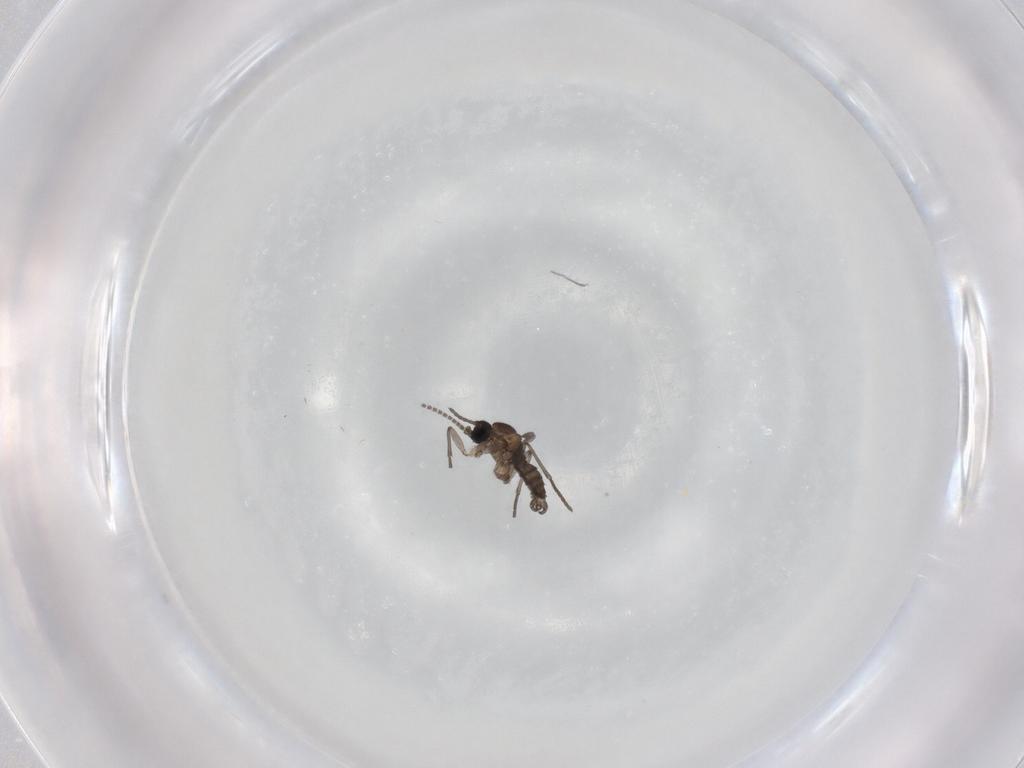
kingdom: Animalia
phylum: Arthropoda
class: Insecta
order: Diptera
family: Sciaridae
